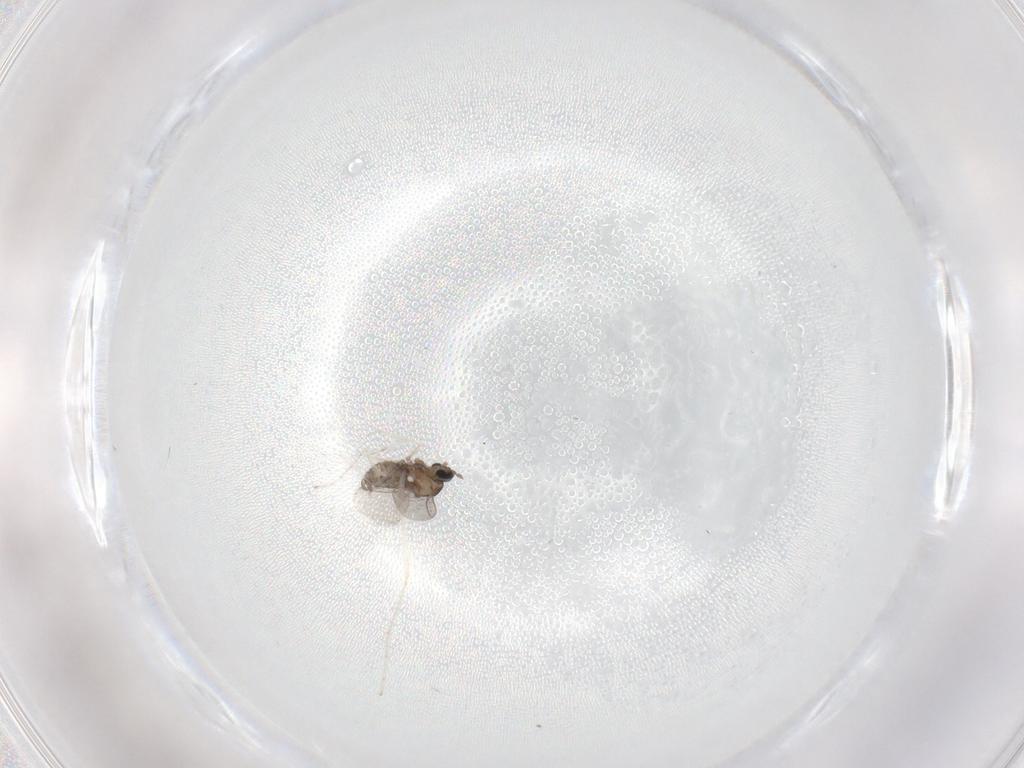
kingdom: Animalia
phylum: Arthropoda
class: Insecta
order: Diptera
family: Cecidomyiidae
